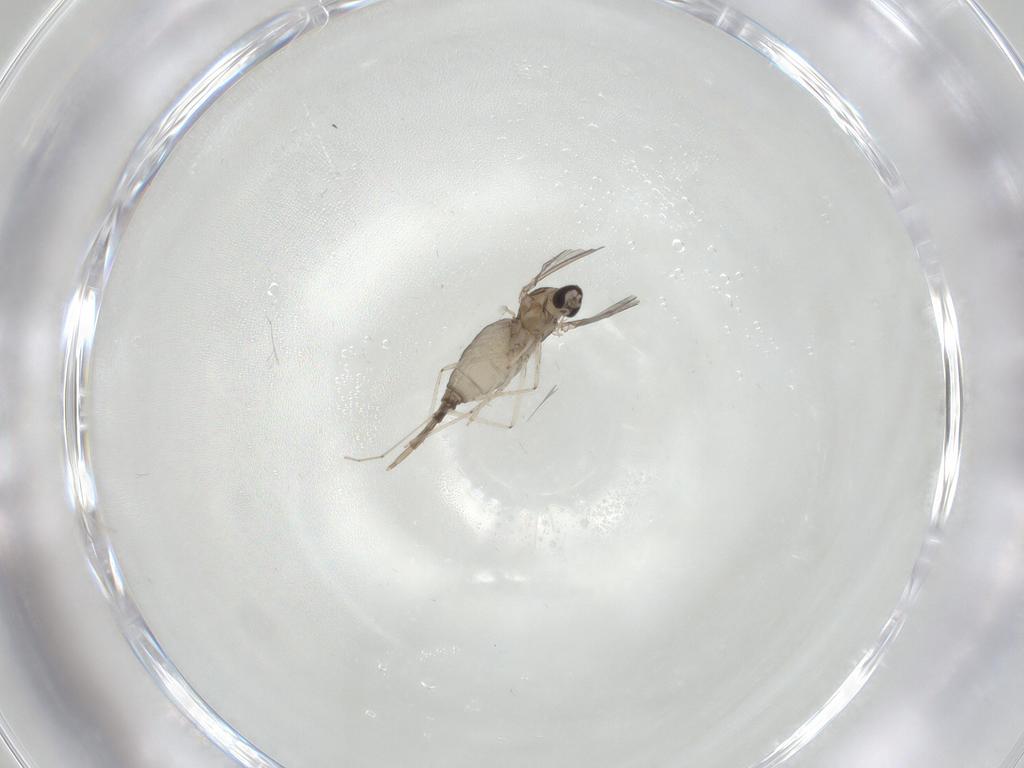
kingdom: Animalia
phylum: Arthropoda
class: Insecta
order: Diptera
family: Cecidomyiidae
